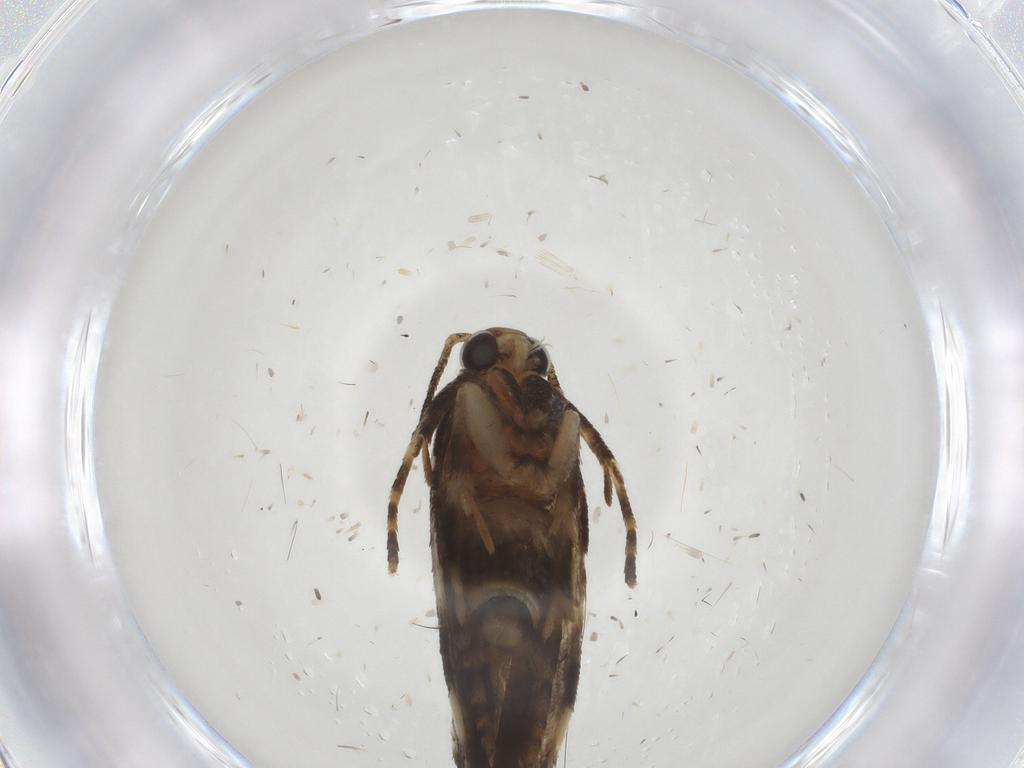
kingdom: Animalia
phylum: Arthropoda
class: Insecta
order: Lepidoptera
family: Gelechiidae
